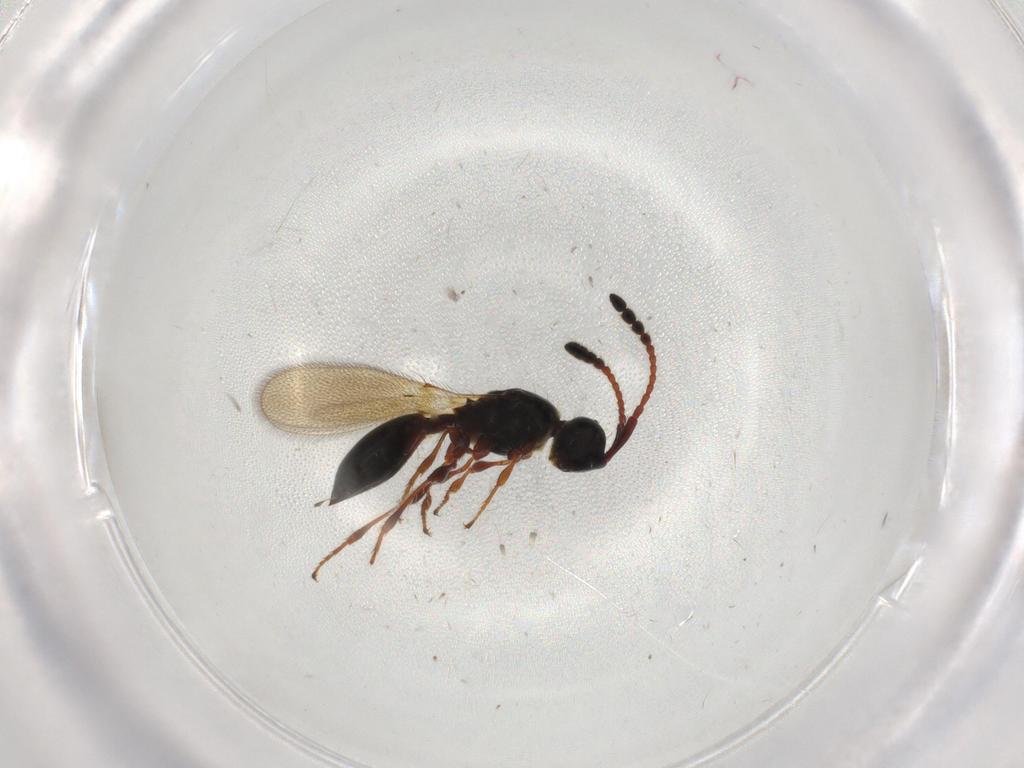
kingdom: Animalia
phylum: Arthropoda
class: Insecta
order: Hymenoptera
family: Diapriidae
